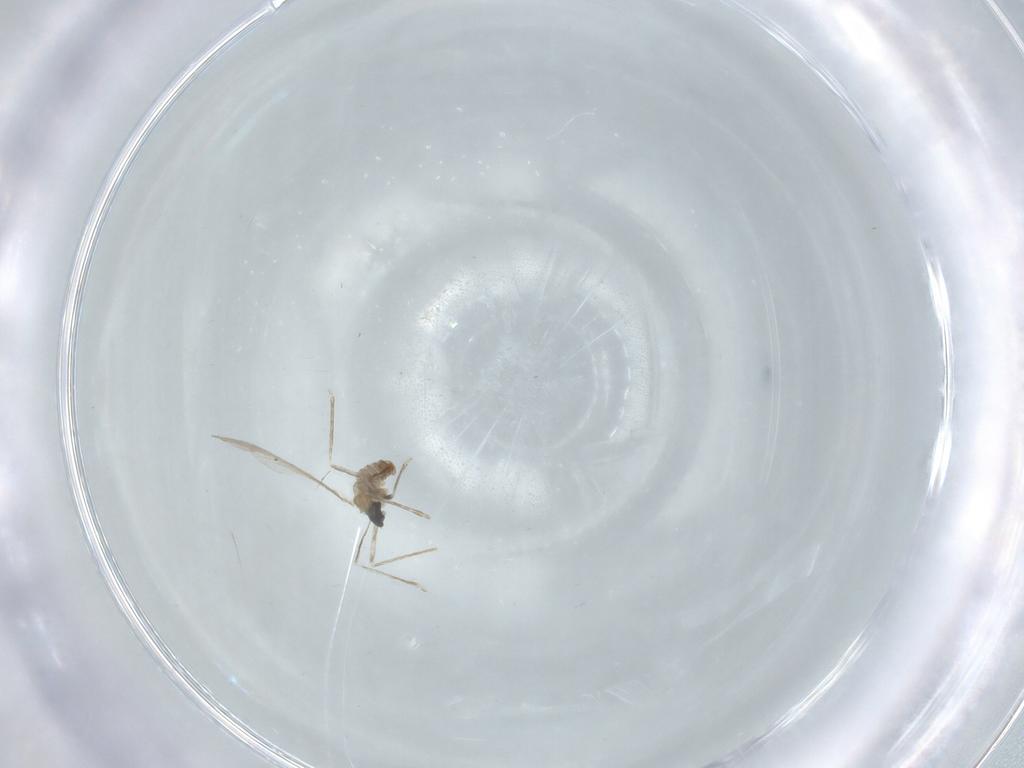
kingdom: Animalia
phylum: Arthropoda
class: Insecta
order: Diptera
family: Cecidomyiidae
